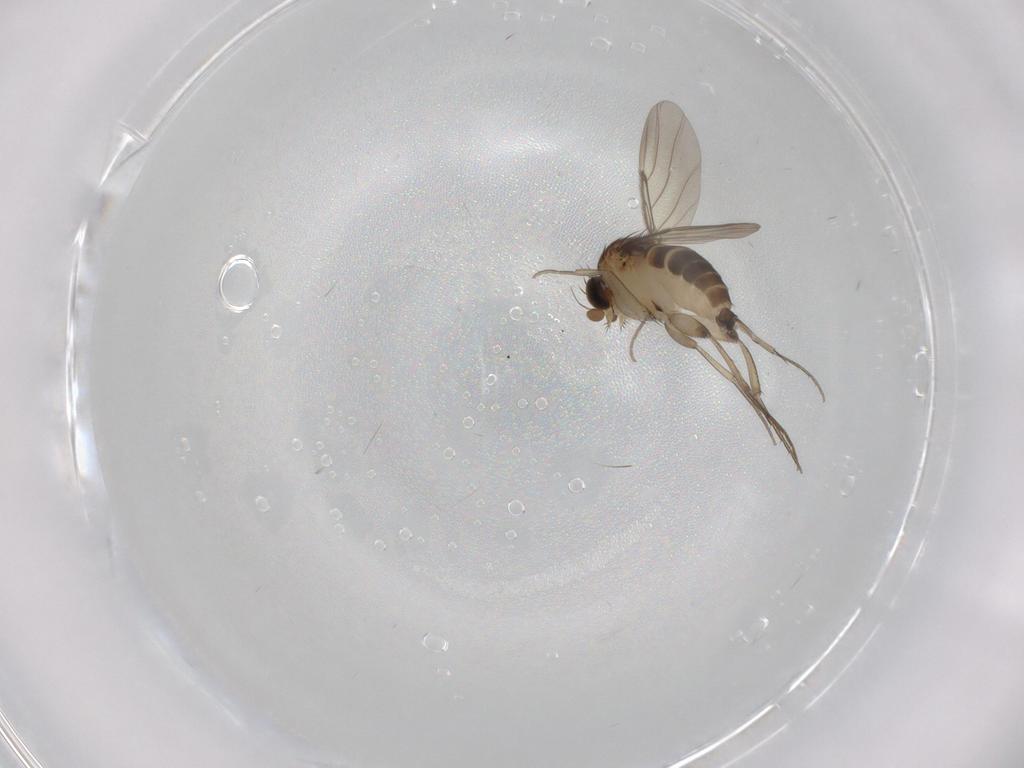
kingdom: Animalia
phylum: Arthropoda
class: Insecta
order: Diptera
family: Phoridae
